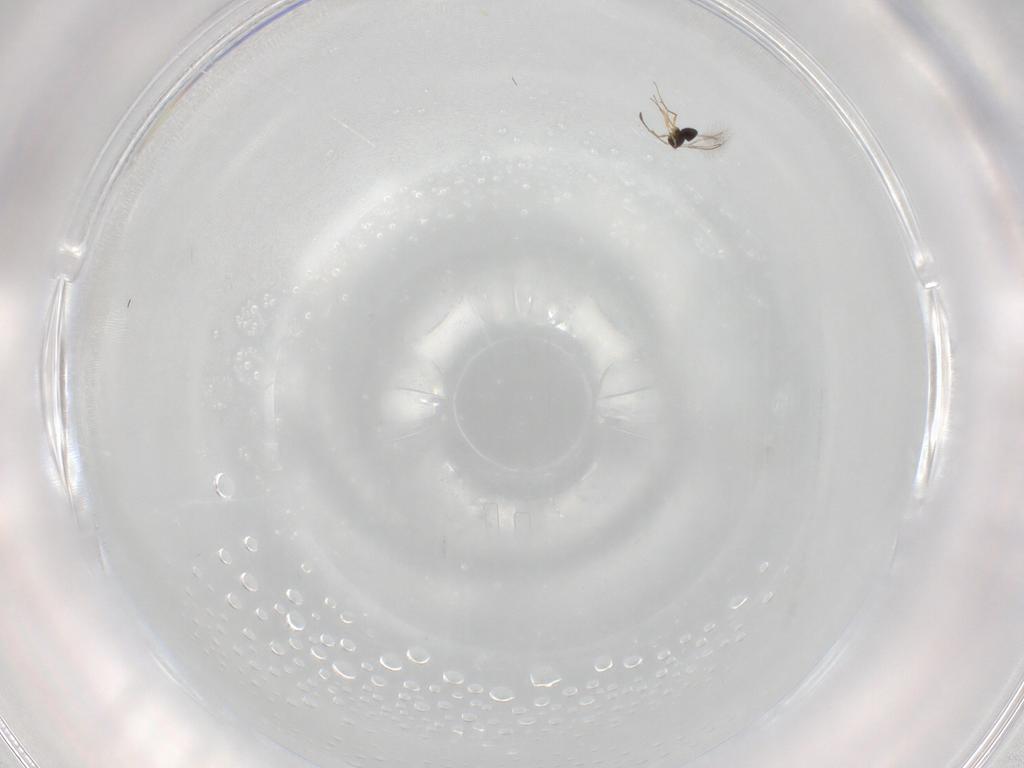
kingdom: Animalia
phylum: Arthropoda
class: Insecta
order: Hymenoptera
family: Mymaridae
